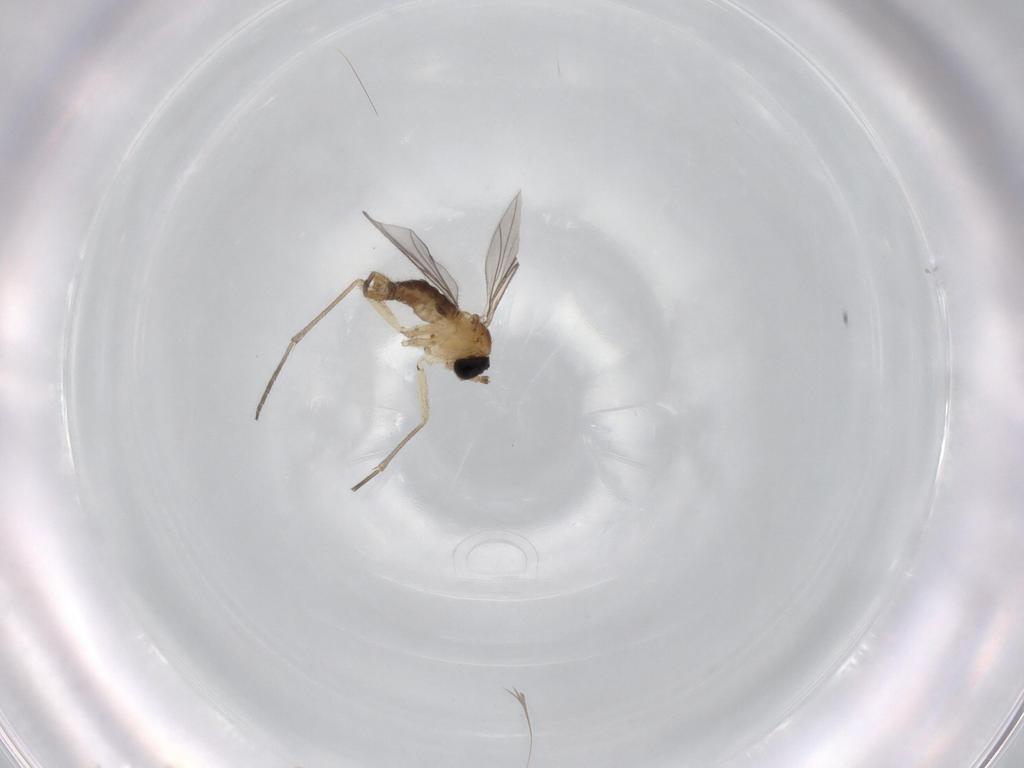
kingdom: Animalia
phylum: Arthropoda
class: Insecta
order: Diptera
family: Sciaridae
